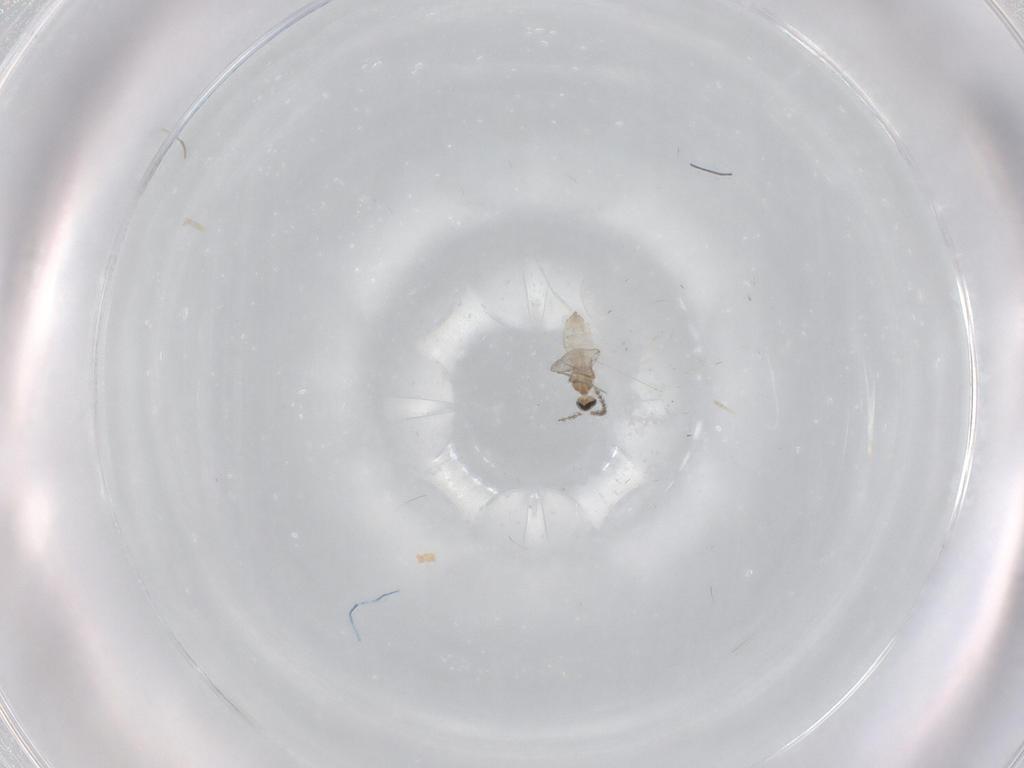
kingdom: Animalia
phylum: Arthropoda
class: Insecta
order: Diptera
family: Cecidomyiidae
